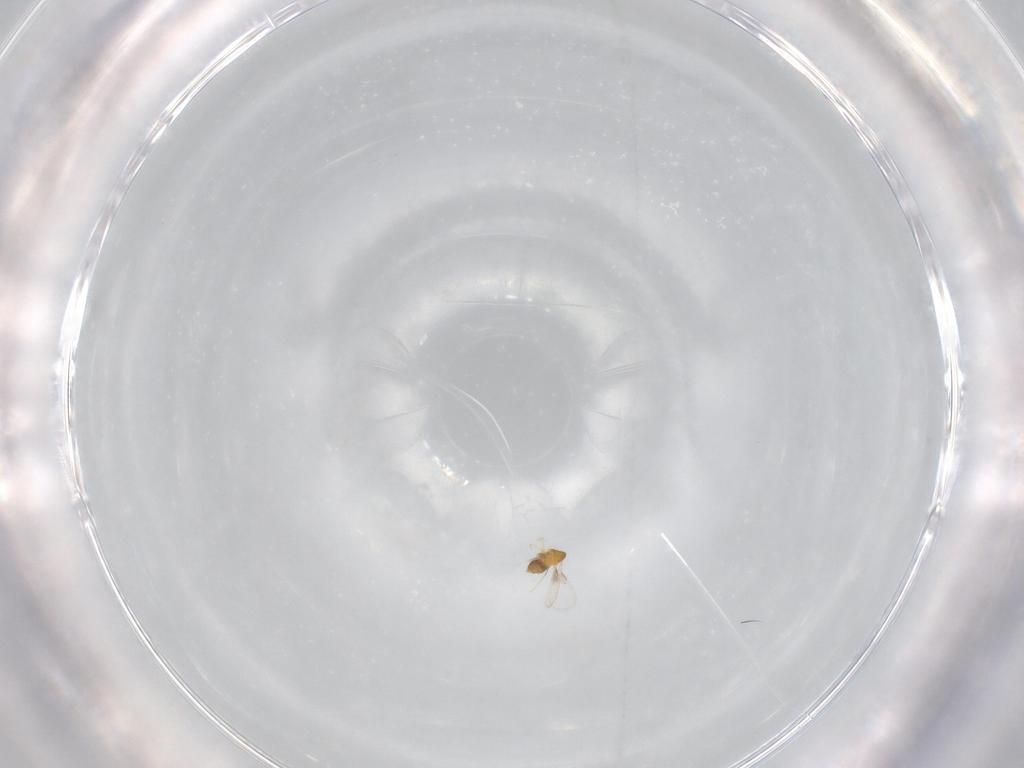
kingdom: Animalia
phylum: Arthropoda
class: Insecta
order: Hymenoptera
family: Trichogrammatidae
